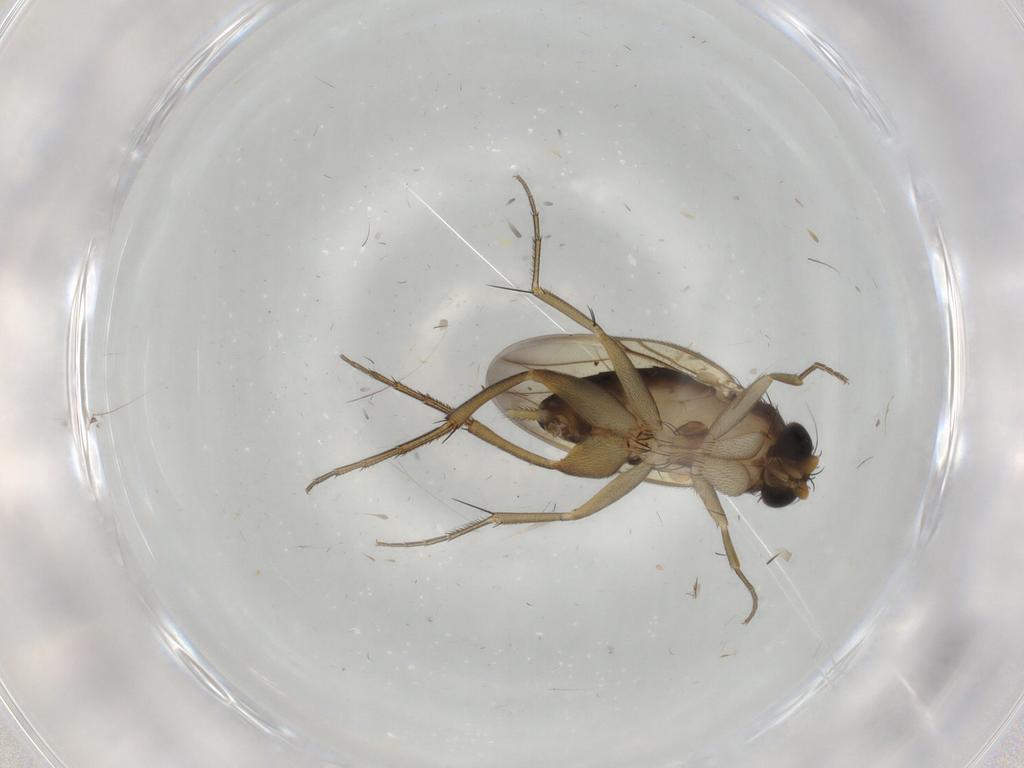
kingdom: Animalia
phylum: Arthropoda
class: Insecta
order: Diptera
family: Phoridae
